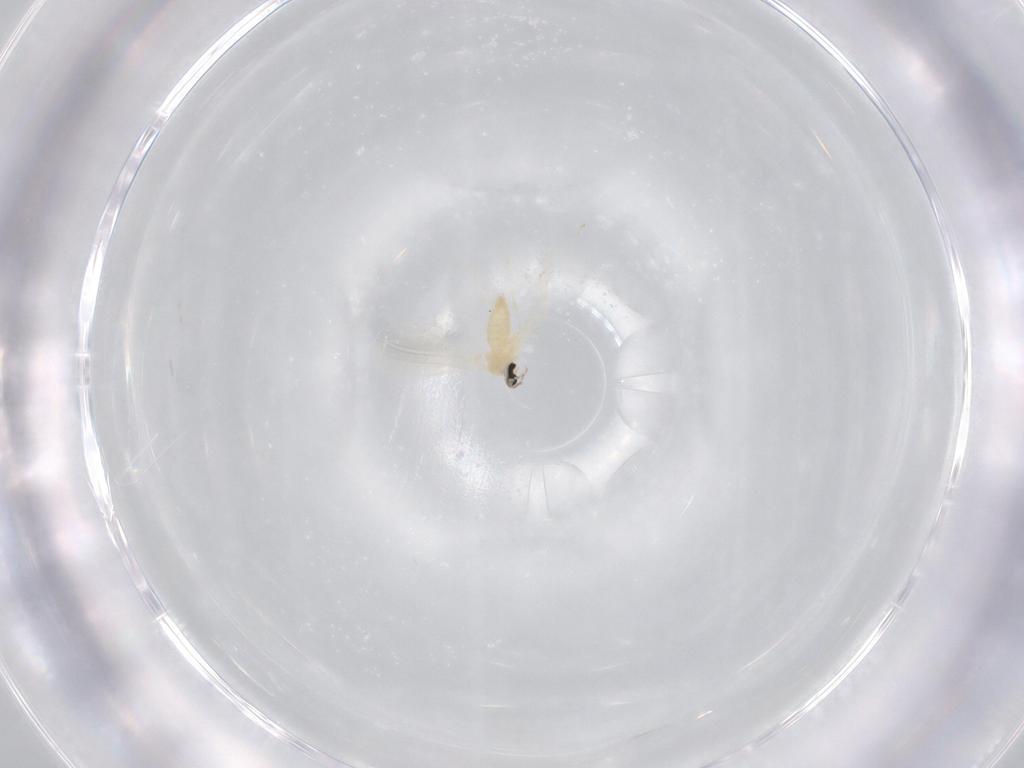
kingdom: Animalia
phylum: Arthropoda
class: Insecta
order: Diptera
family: Cecidomyiidae
